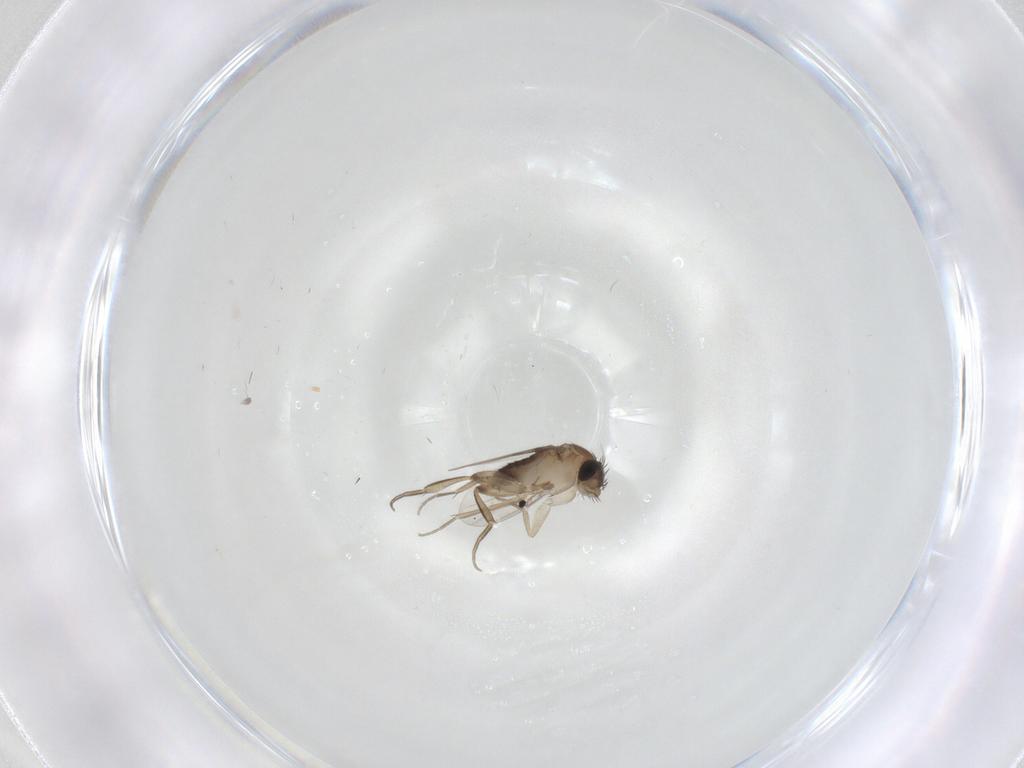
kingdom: Animalia
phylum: Arthropoda
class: Insecta
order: Diptera
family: Phoridae
